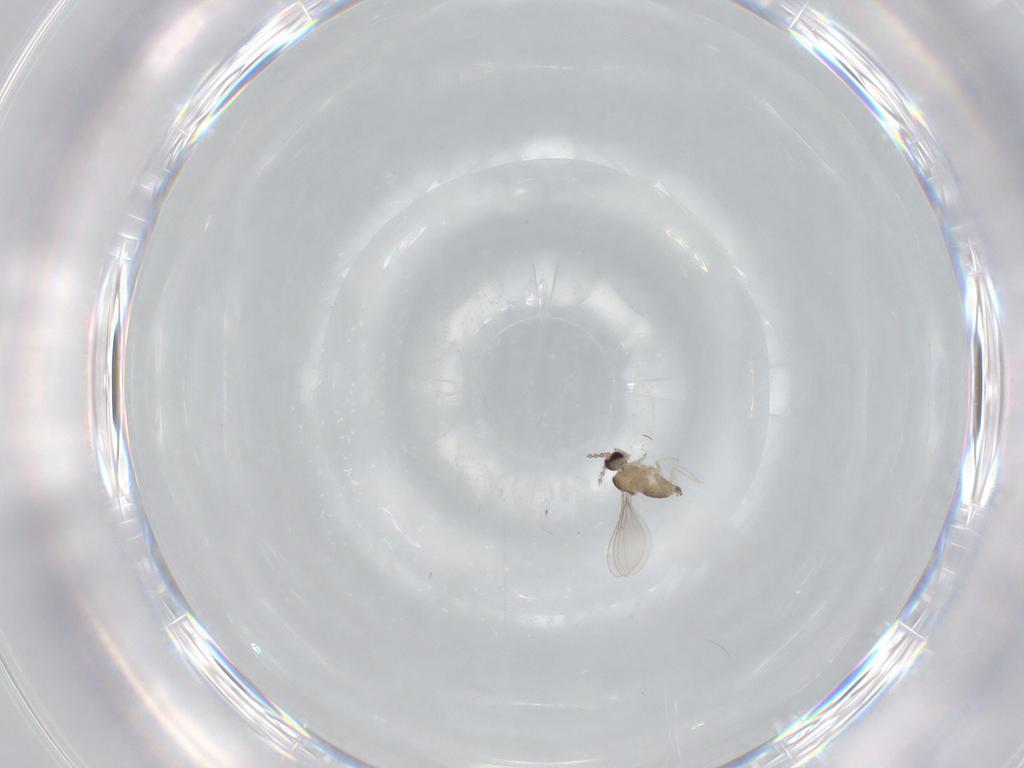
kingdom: Animalia
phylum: Arthropoda
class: Insecta
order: Diptera
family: Cecidomyiidae
